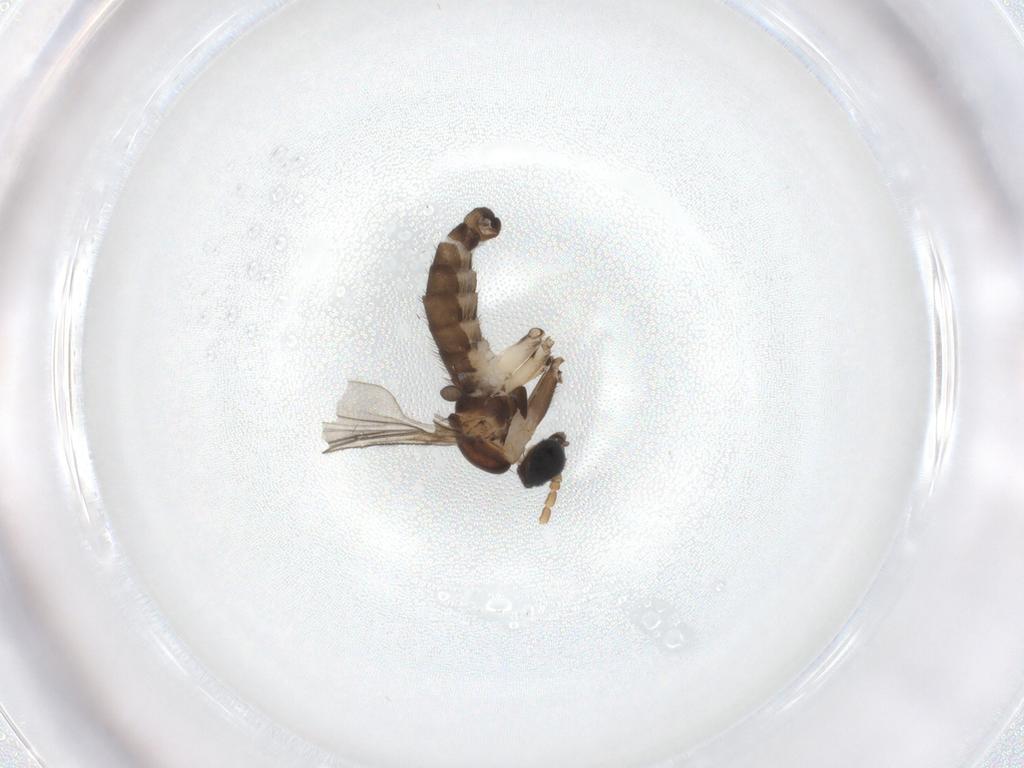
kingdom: Animalia
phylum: Arthropoda
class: Insecta
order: Diptera
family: Sciaridae
